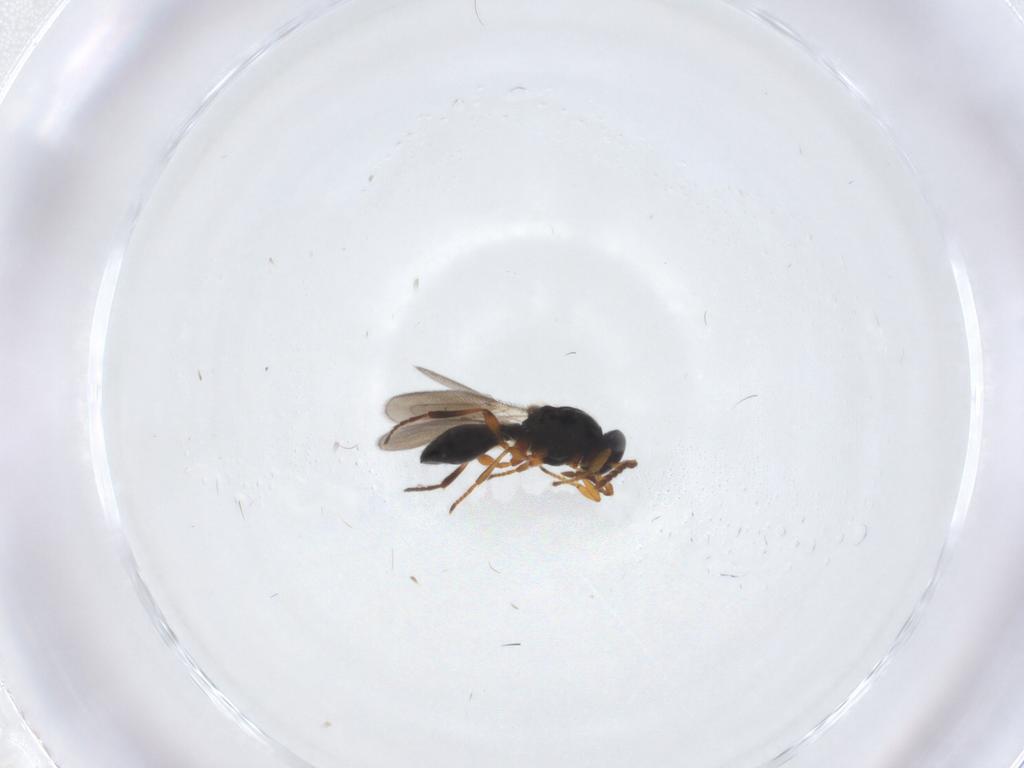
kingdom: Animalia
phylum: Arthropoda
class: Insecta
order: Hymenoptera
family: Platygastridae
